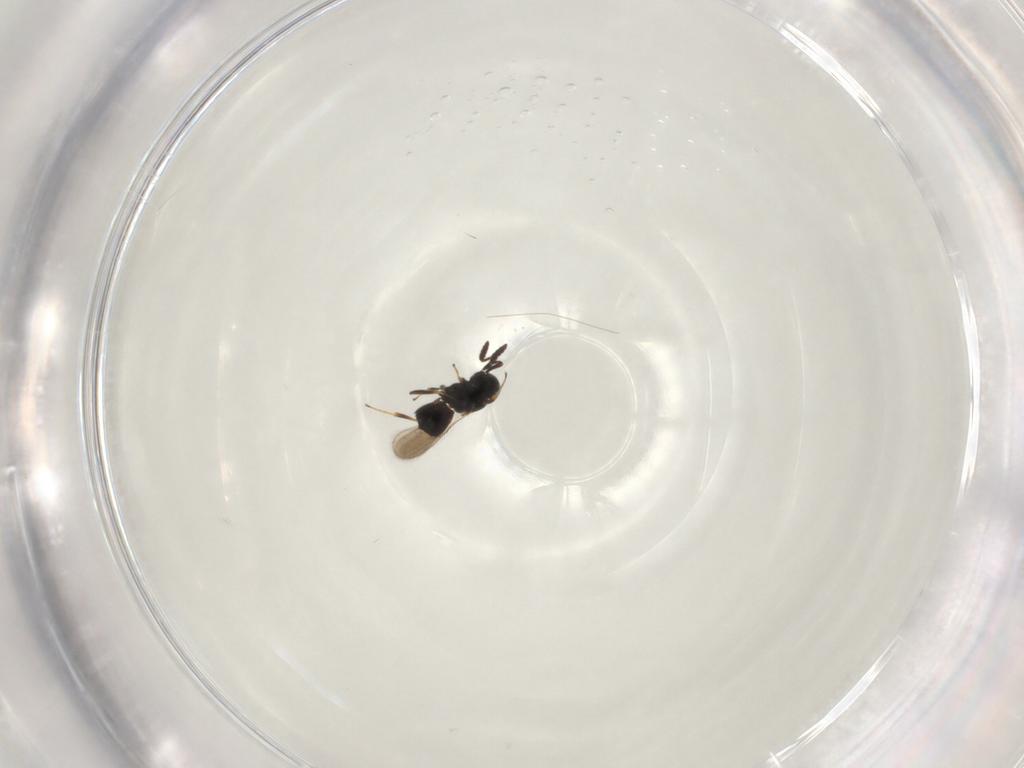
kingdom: Animalia
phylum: Arthropoda
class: Insecta
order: Hymenoptera
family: Scelionidae
